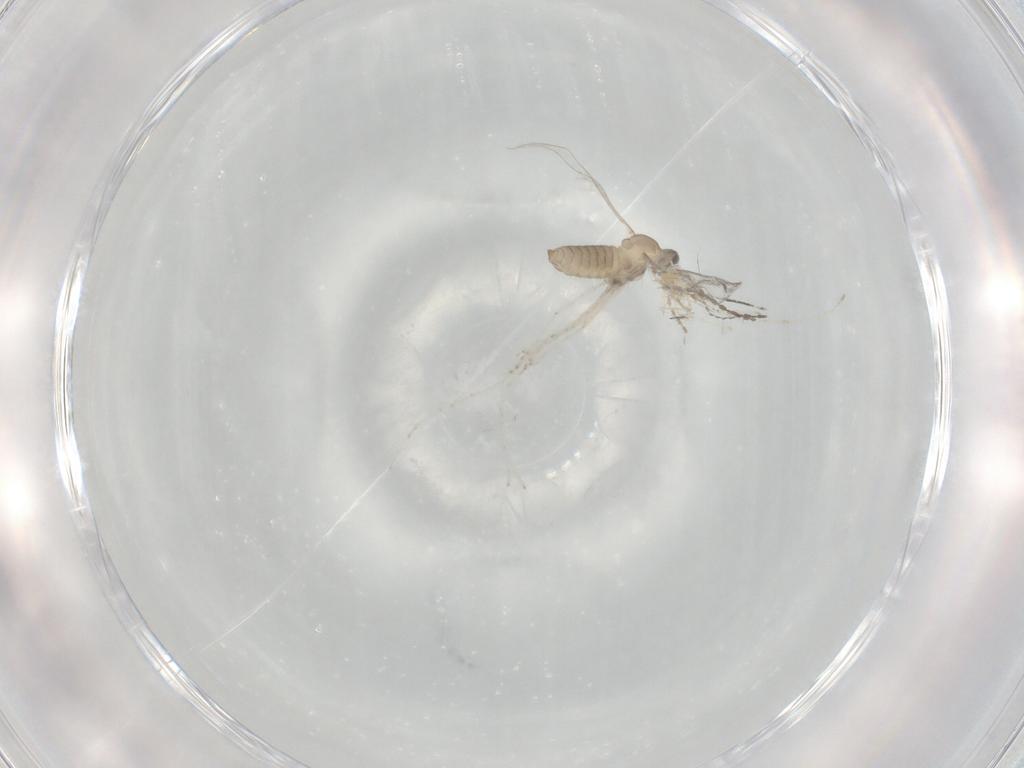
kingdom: Animalia
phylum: Arthropoda
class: Insecta
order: Diptera
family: Cecidomyiidae
